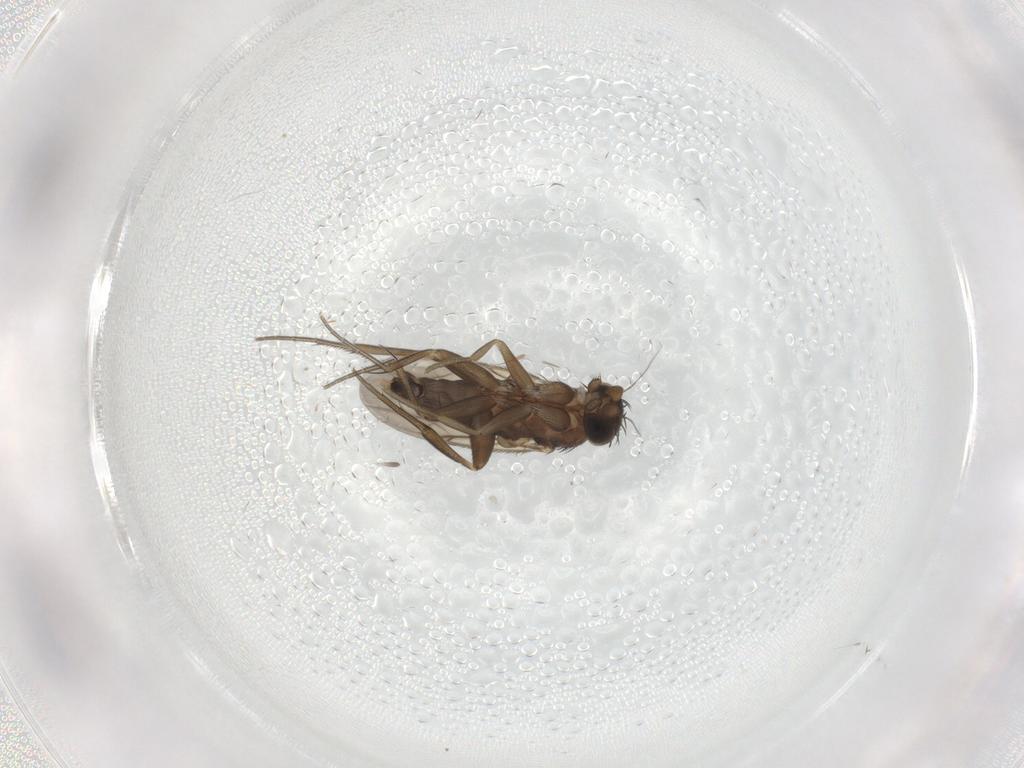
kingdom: Animalia
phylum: Arthropoda
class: Insecta
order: Diptera
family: Phoridae
